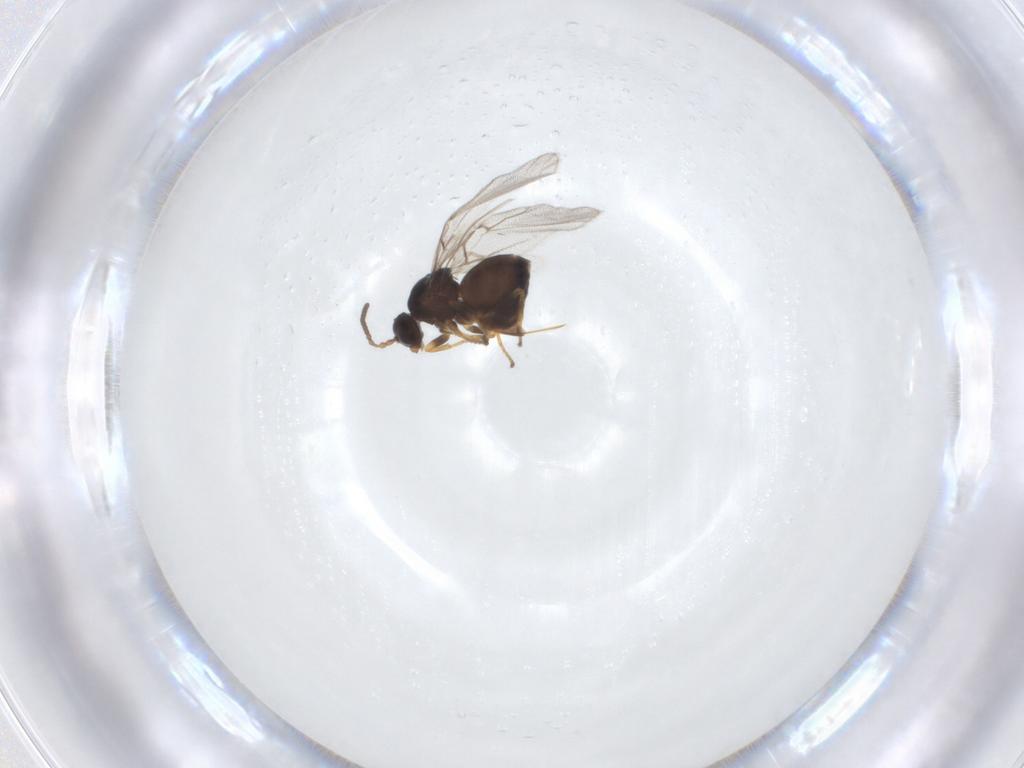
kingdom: Animalia
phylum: Arthropoda
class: Insecta
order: Hymenoptera
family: Cynipidae
